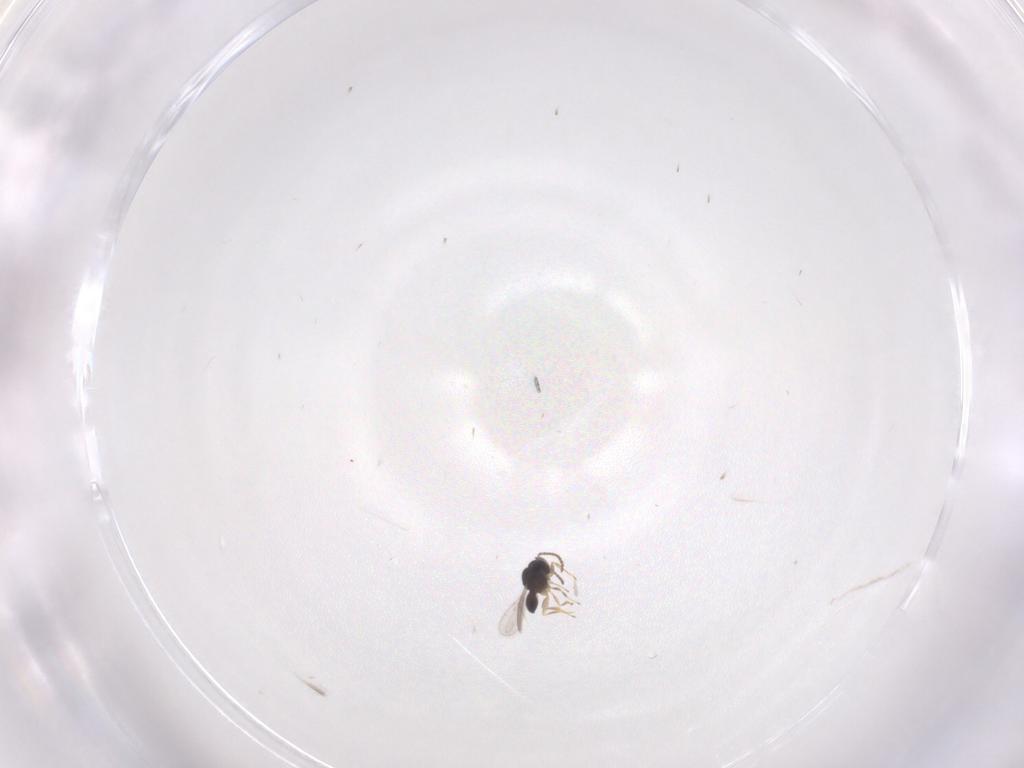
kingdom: Animalia
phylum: Arthropoda
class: Insecta
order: Hymenoptera
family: Scelionidae
